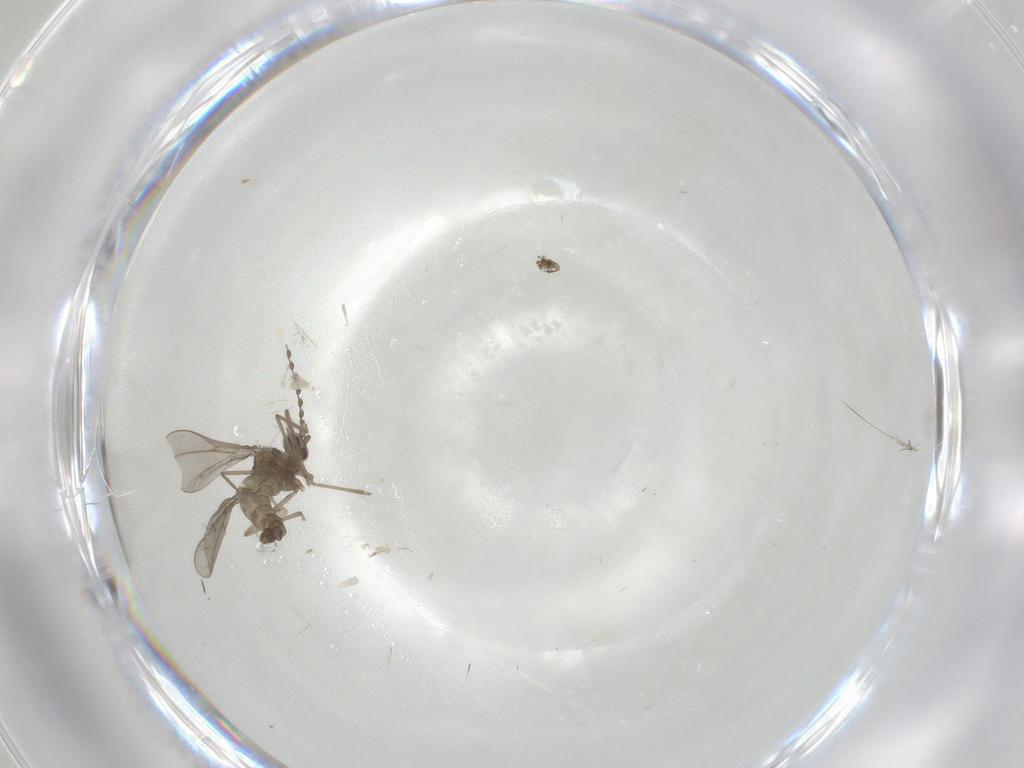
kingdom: Animalia
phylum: Arthropoda
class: Insecta
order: Diptera
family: Cecidomyiidae
